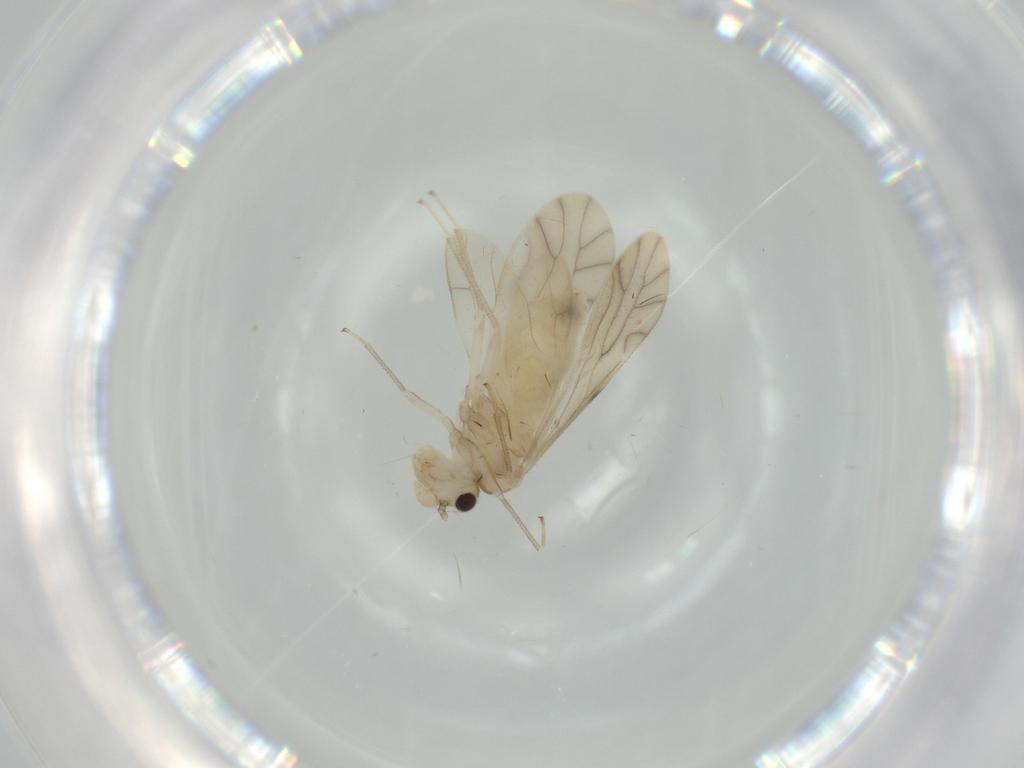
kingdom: Animalia
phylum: Arthropoda
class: Insecta
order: Psocodea
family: Caeciliusidae
